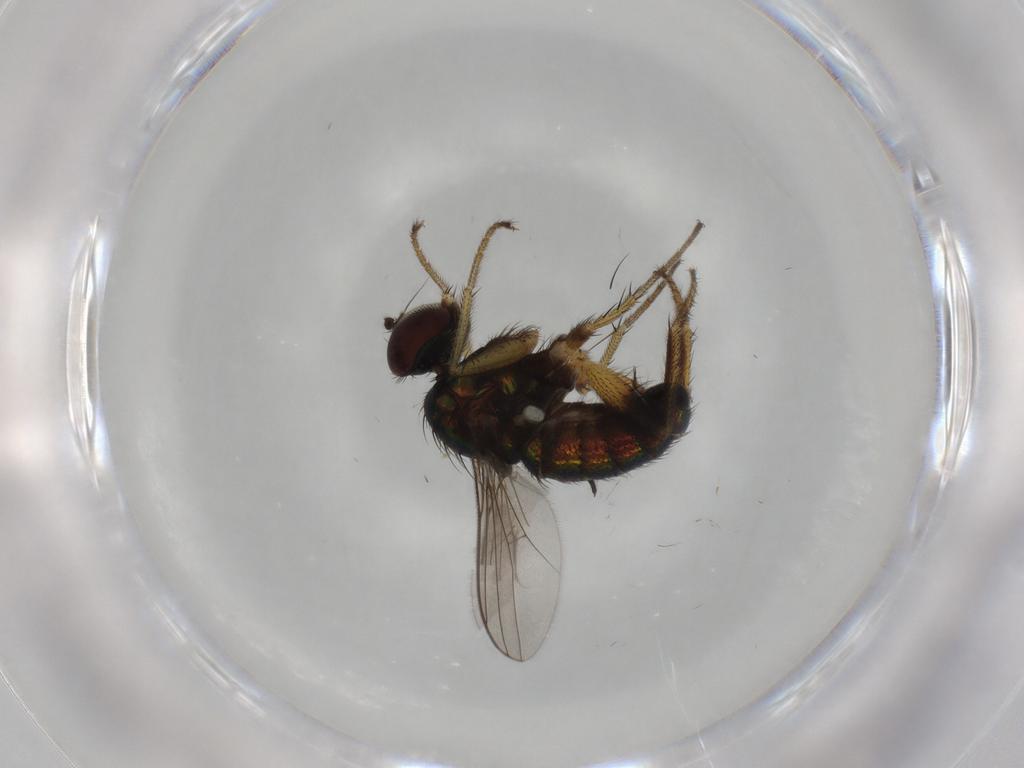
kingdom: Animalia
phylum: Arthropoda
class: Insecta
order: Diptera
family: Dolichopodidae
